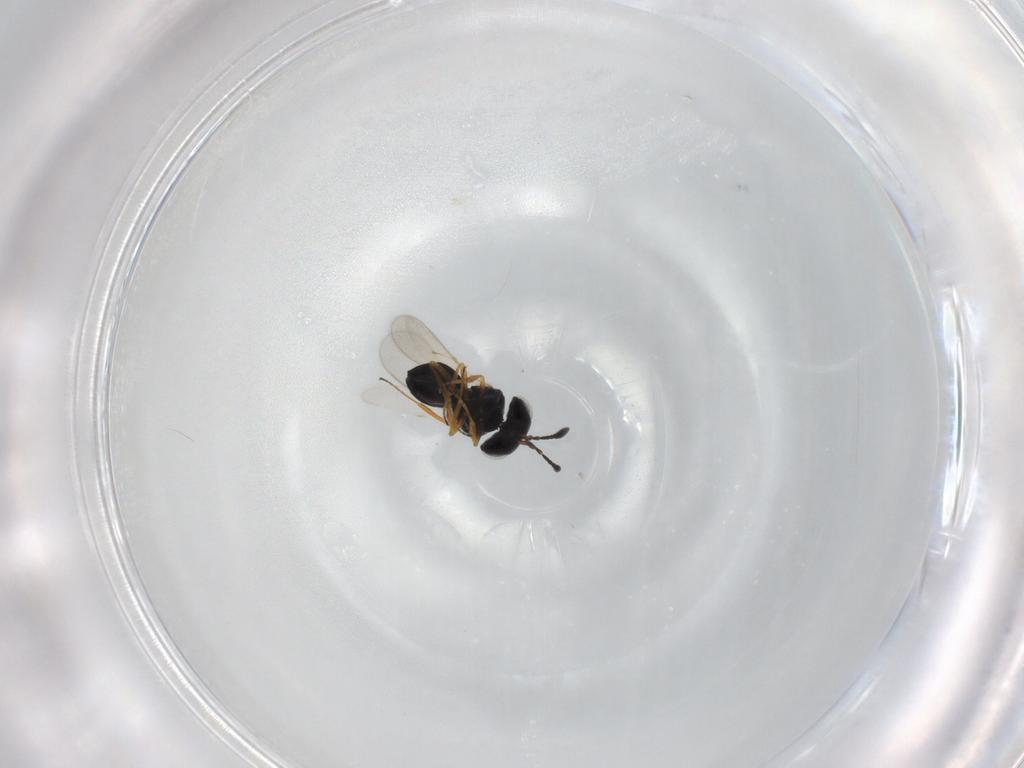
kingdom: Animalia
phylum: Arthropoda
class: Insecta
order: Hymenoptera
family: Scelionidae
